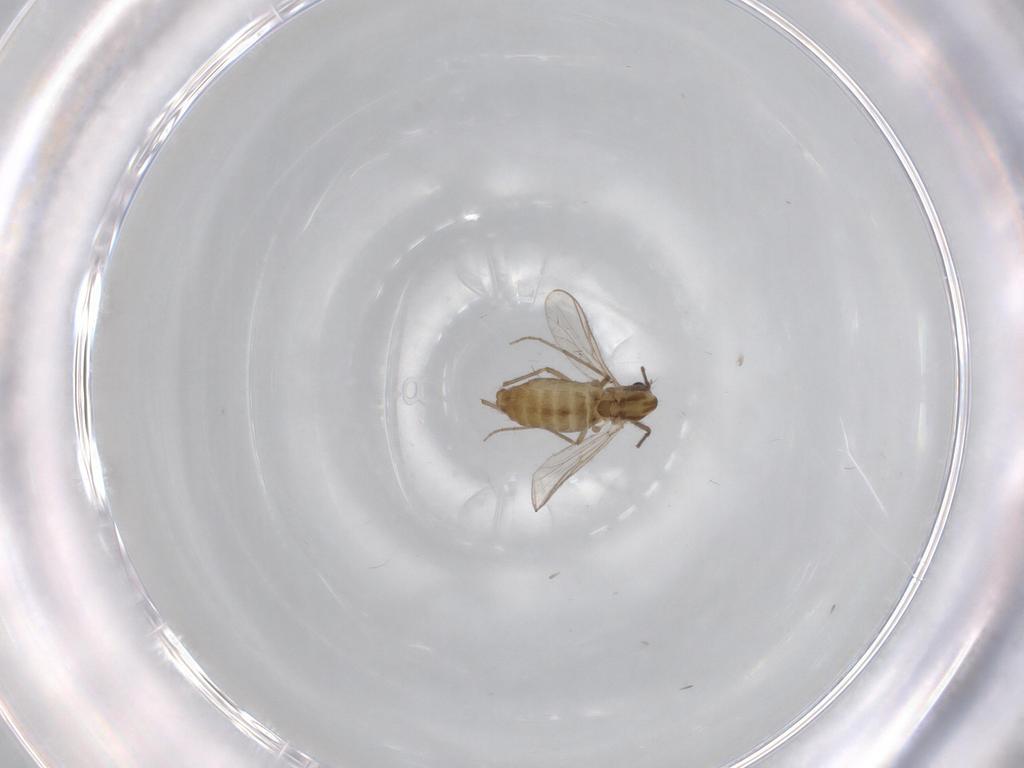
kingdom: Animalia
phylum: Arthropoda
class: Insecta
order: Diptera
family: Chironomidae
